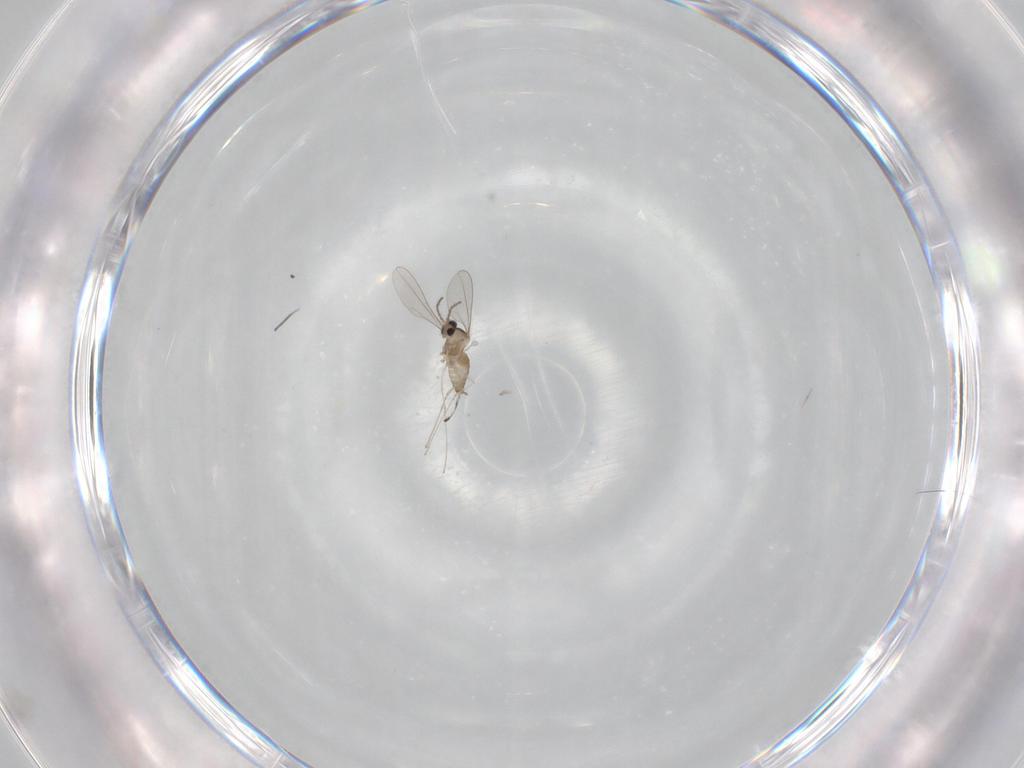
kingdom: Animalia
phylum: Arthropoda
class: Insecta
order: Diptera
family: Cecidomyiidae
